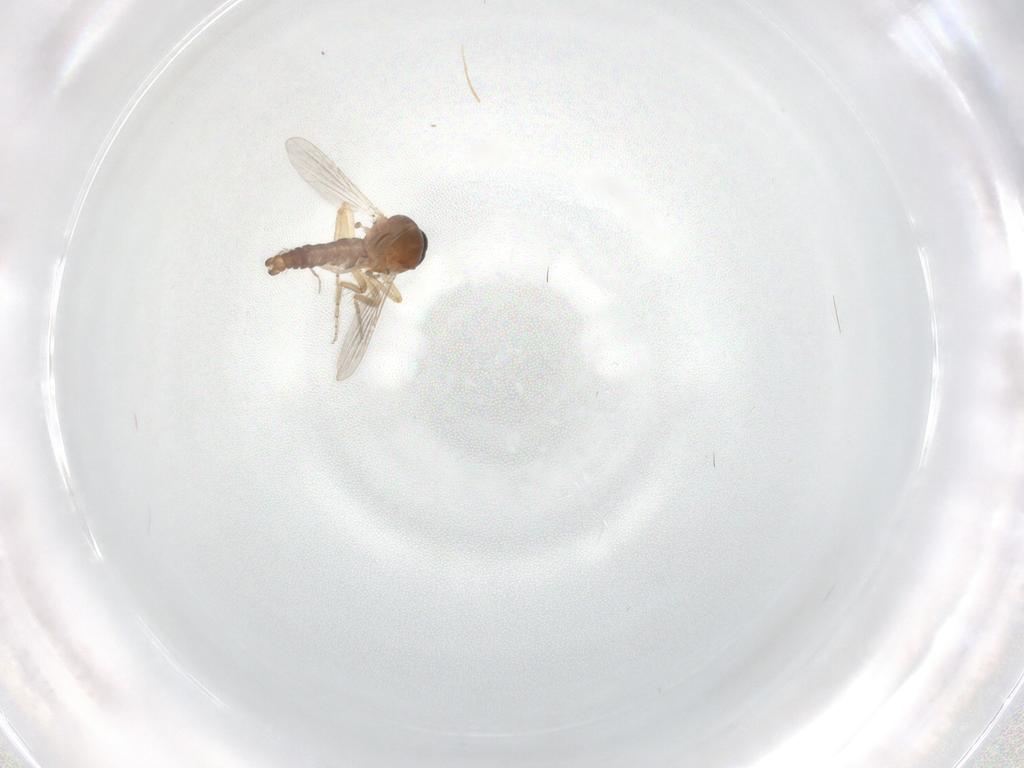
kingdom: Animalia
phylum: Arthropoda
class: Insecta
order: Diptera
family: Ceratopogonidae
